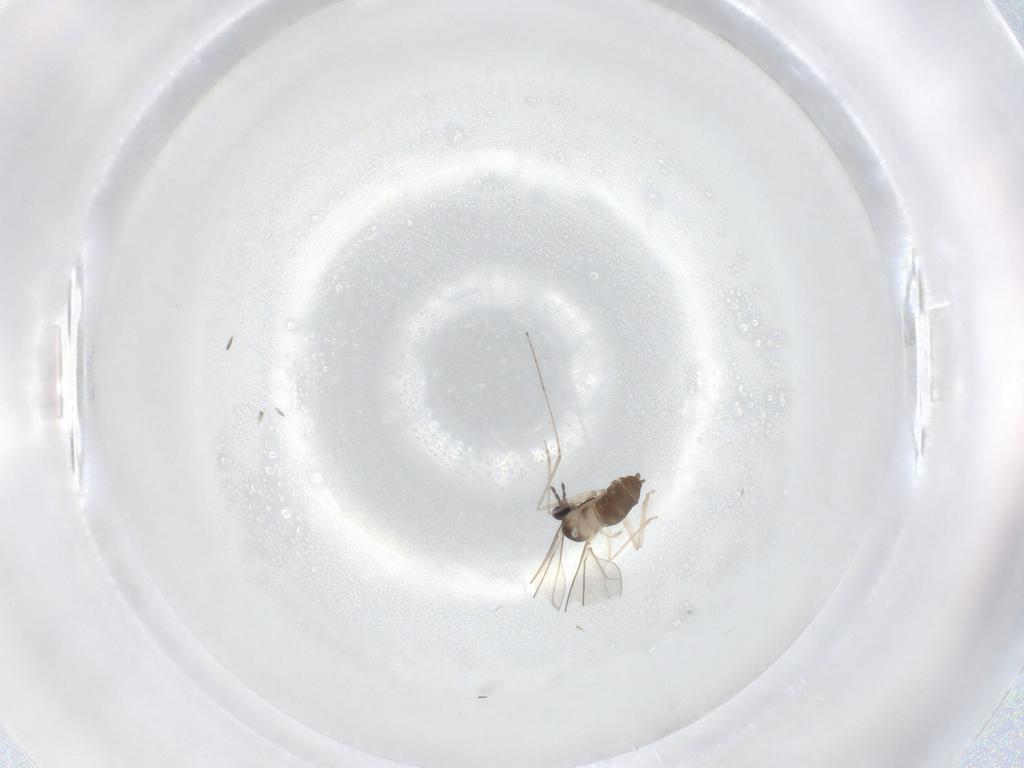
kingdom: Animalia
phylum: Arthropoda
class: Insecta
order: Diptera
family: Cecidomyiidae
